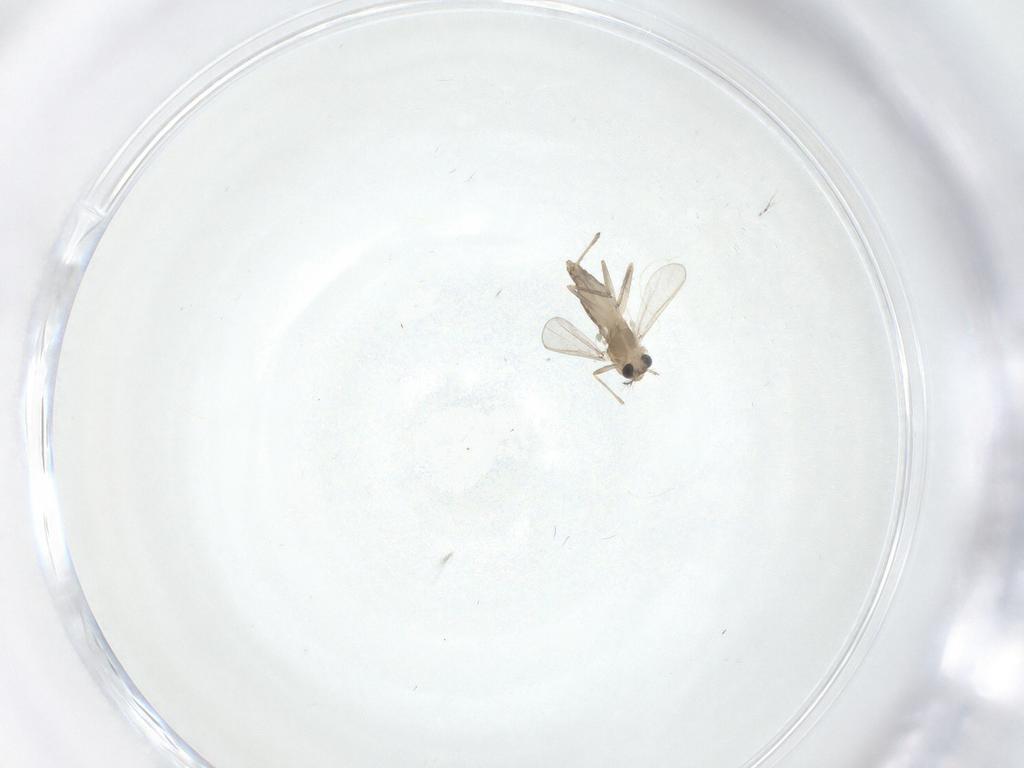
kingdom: Animalia
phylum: Arthropoda
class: Insecta
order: Diptera
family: Chironomidae
